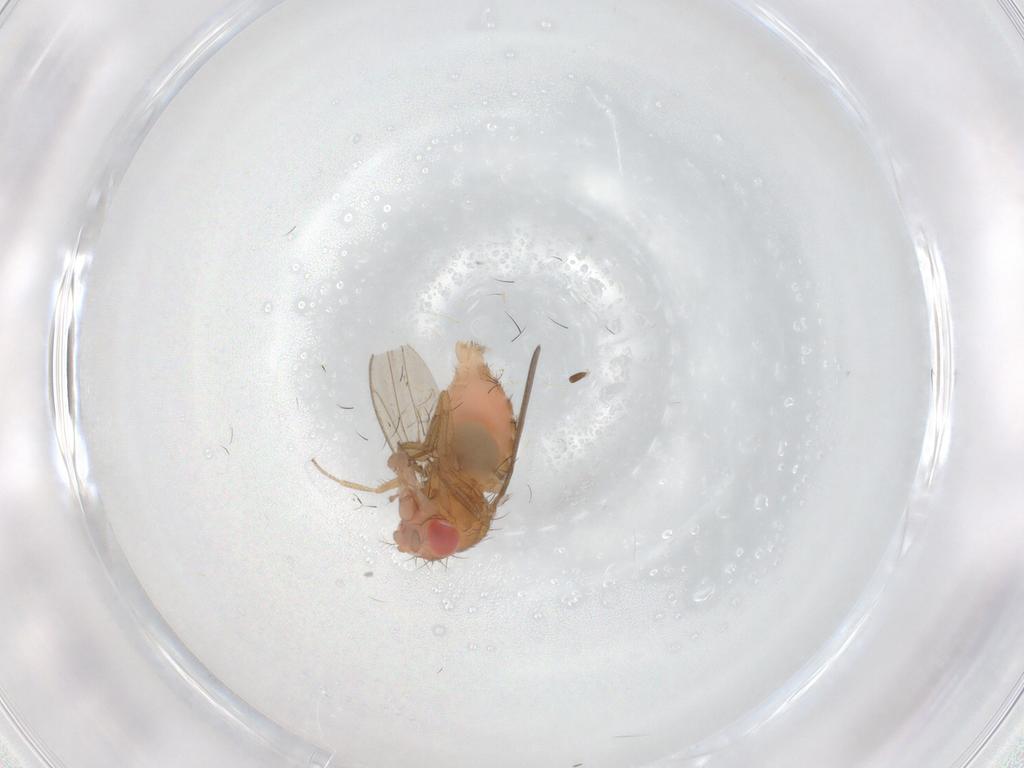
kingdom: Animalia
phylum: Arthropoda
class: Insecta
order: Diptera
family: Drosophilidae
